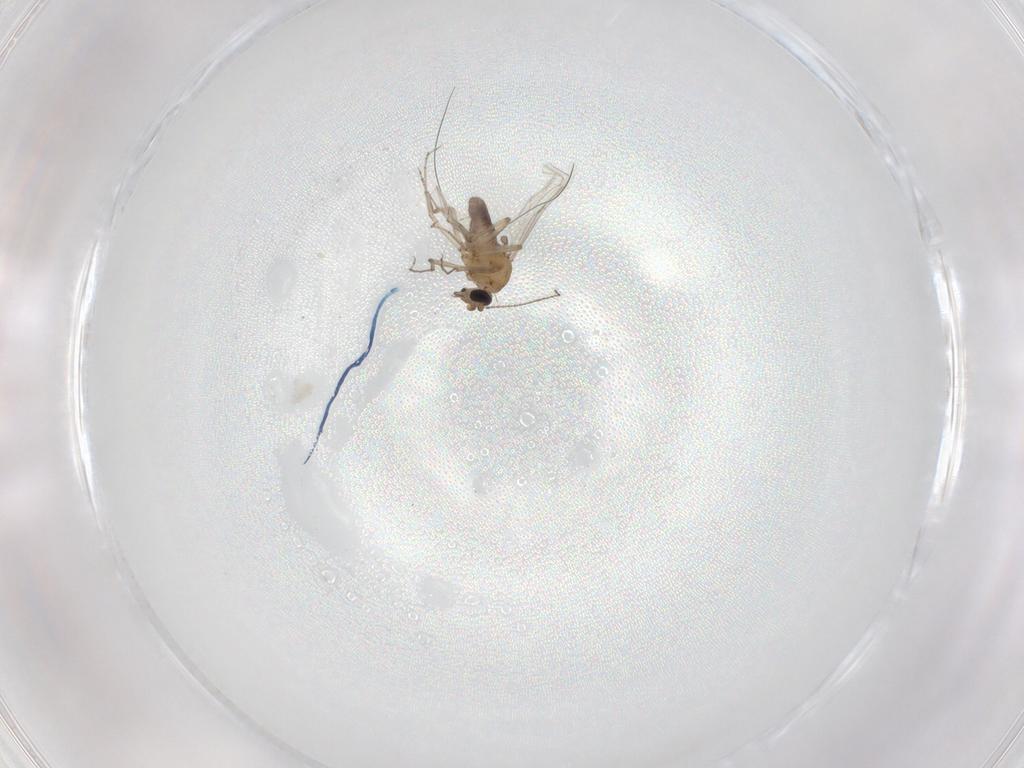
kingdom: Animalia
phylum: Arthropoda
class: Insecta
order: Diptera
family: Ceratopogonidae
